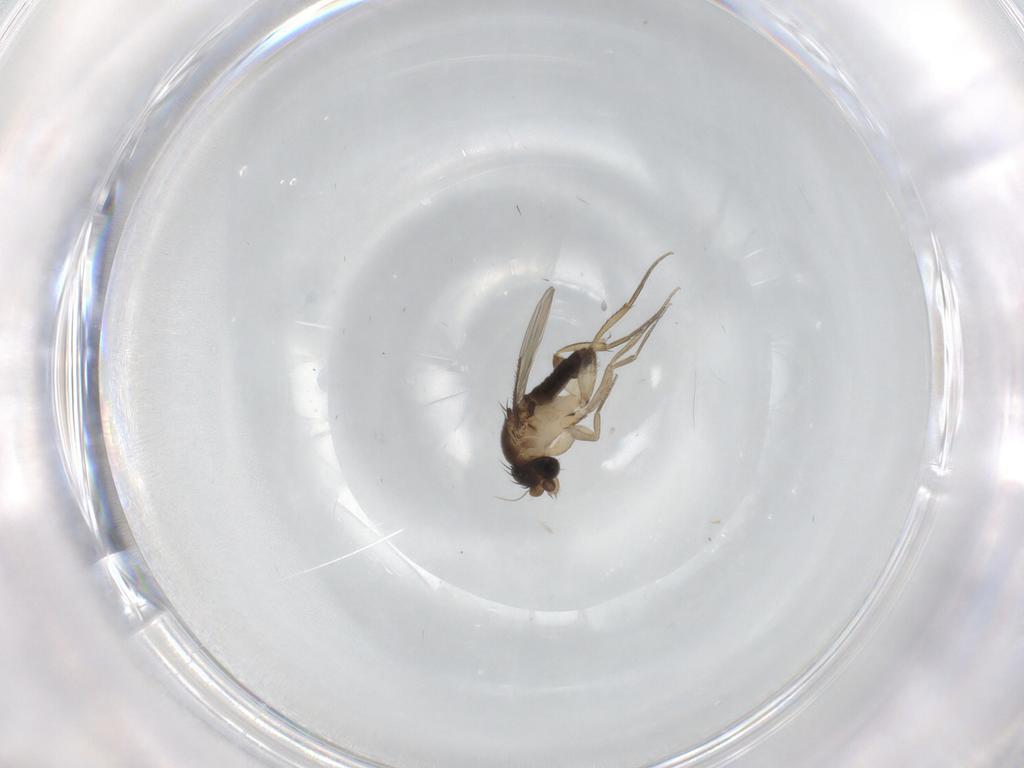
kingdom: Animalia
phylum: Arthropoda
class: Insecta
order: Diptera
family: Phoridae
